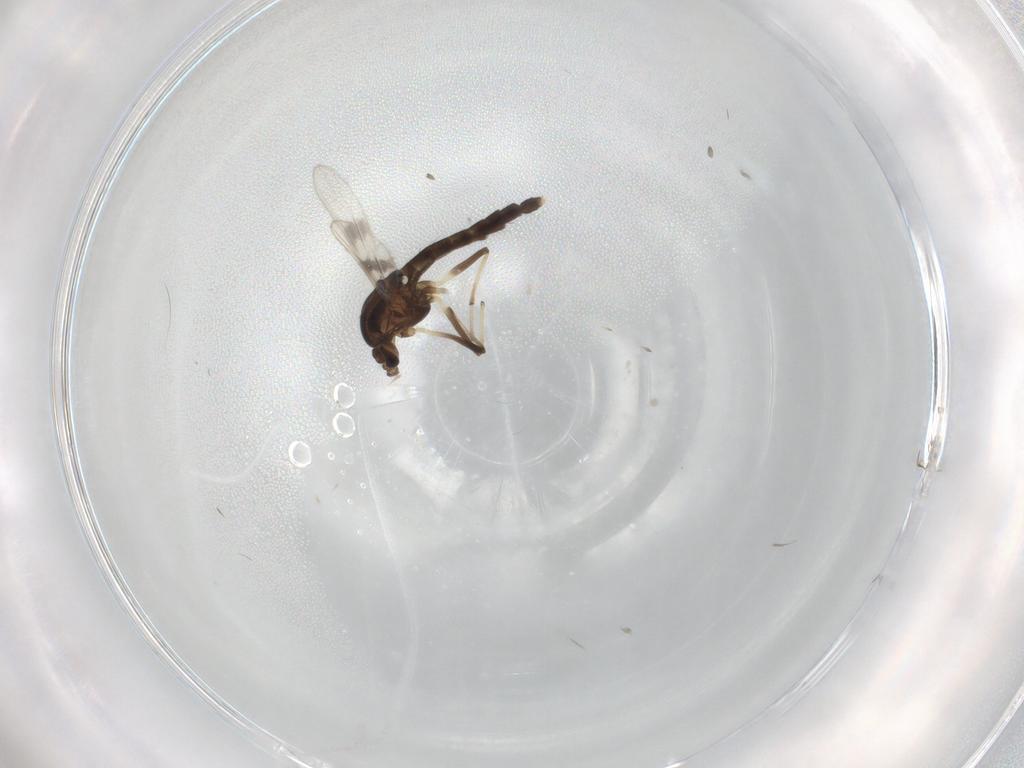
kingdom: Animalia
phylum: Arthropoda
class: Insecta
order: Diptera
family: Chironomidae
